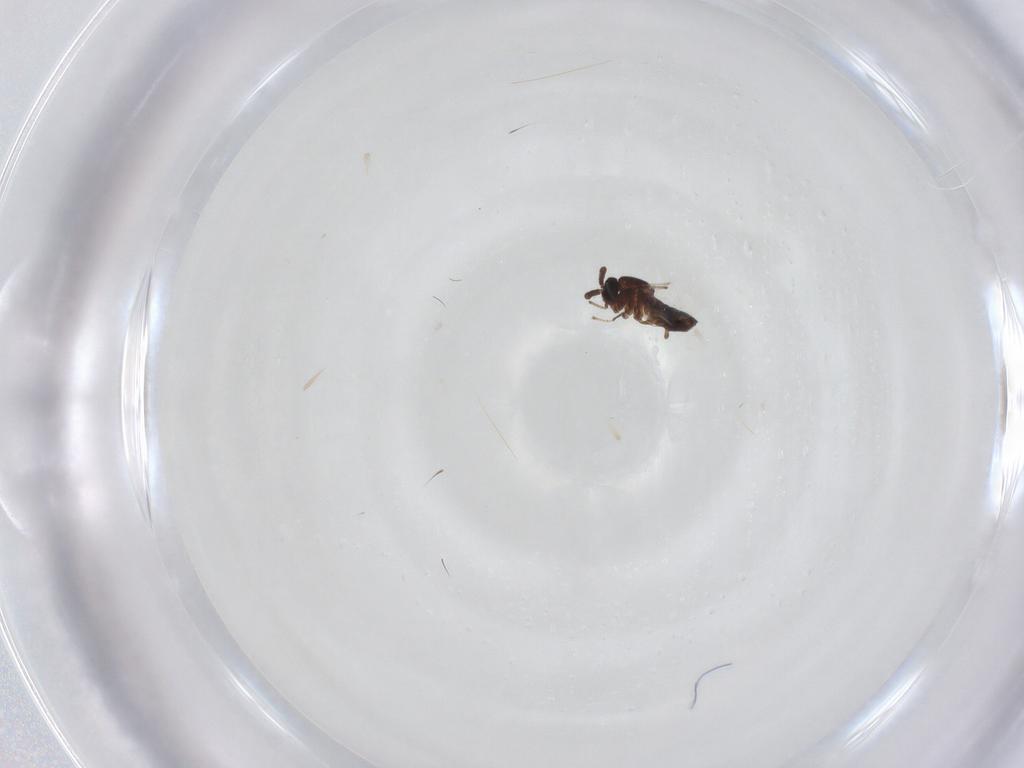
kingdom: Animalia
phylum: Arthropoda
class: Insecta
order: Diptera
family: Scatopsidae
